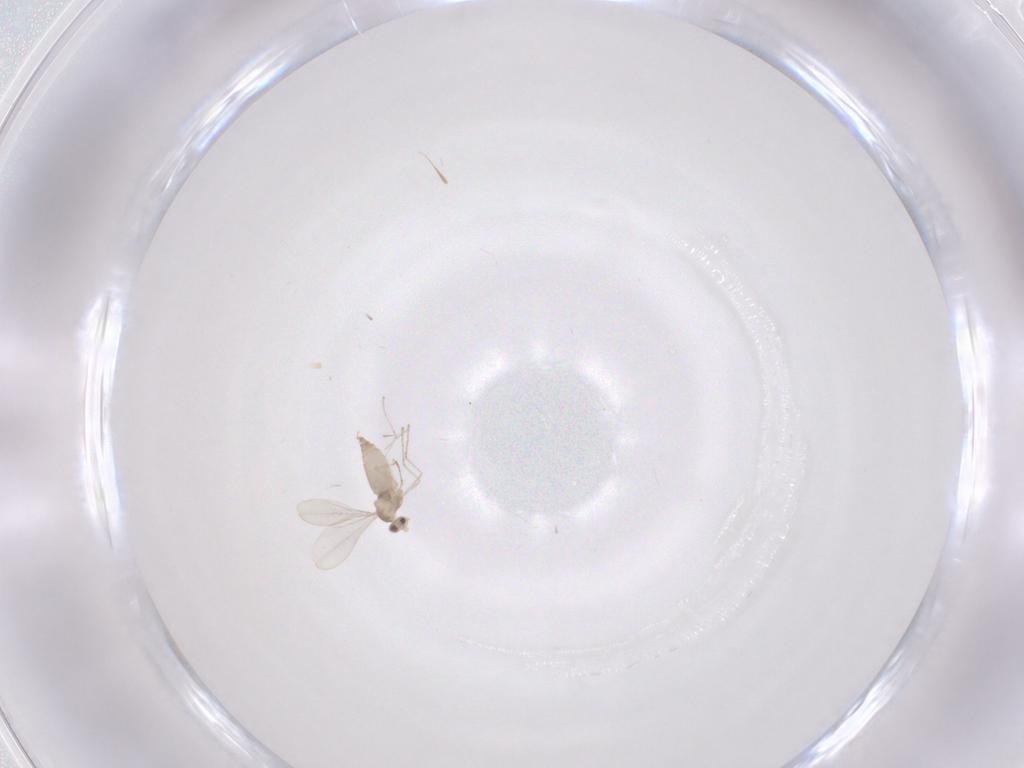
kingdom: Animalia
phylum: Arthropoda
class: Insecta
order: Diptera
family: Cecidomyiidae
